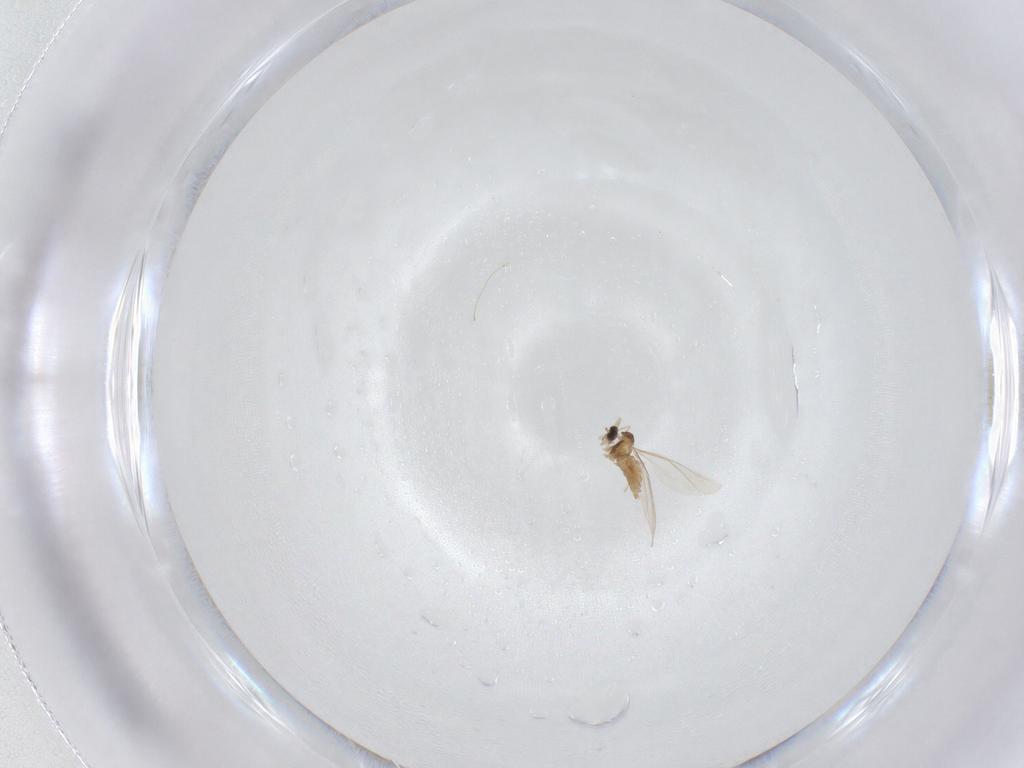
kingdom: Animalia
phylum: Arthropoda
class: Insecta
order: Diptera
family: Cecidomyiidae
